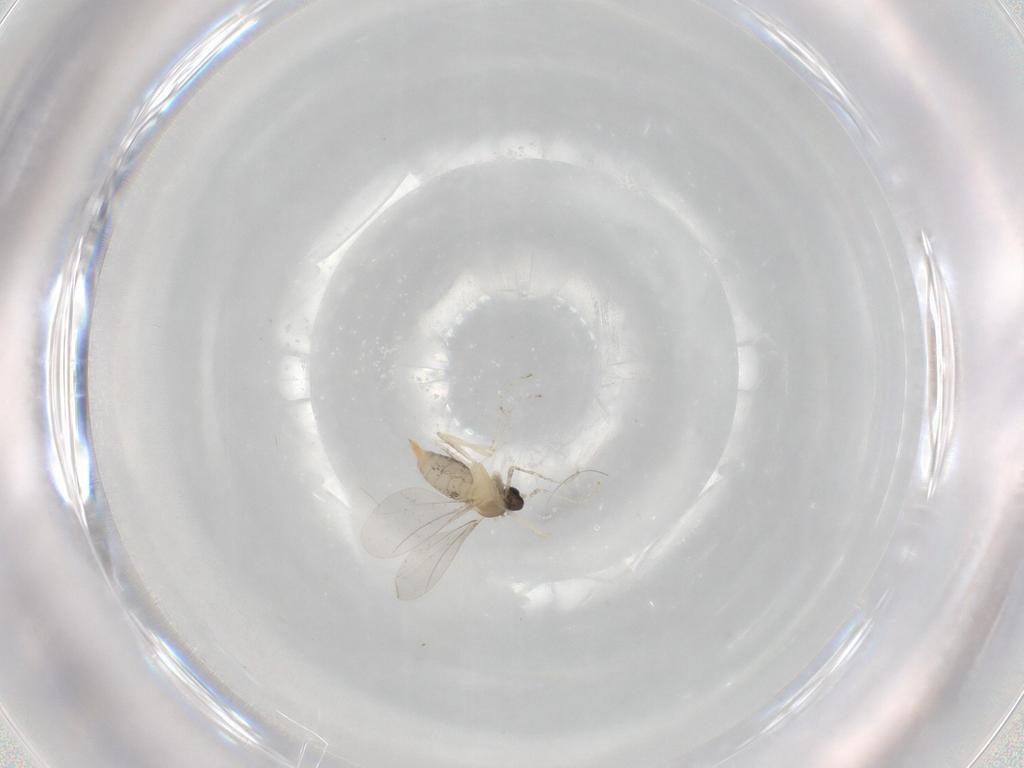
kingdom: Animalia
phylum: Arthropoda
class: Insecta
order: Diptera
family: Cecidomyiidae
